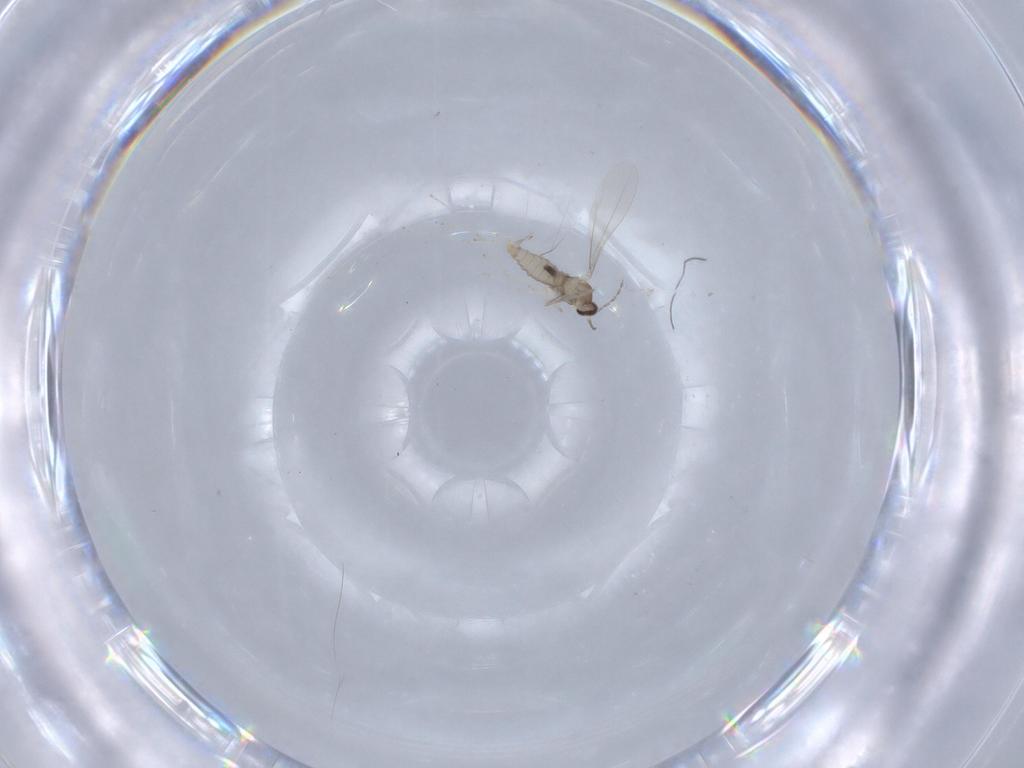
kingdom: Animalia
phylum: Arthropoda
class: Insecta
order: Diptera
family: Cecidomyiidae
